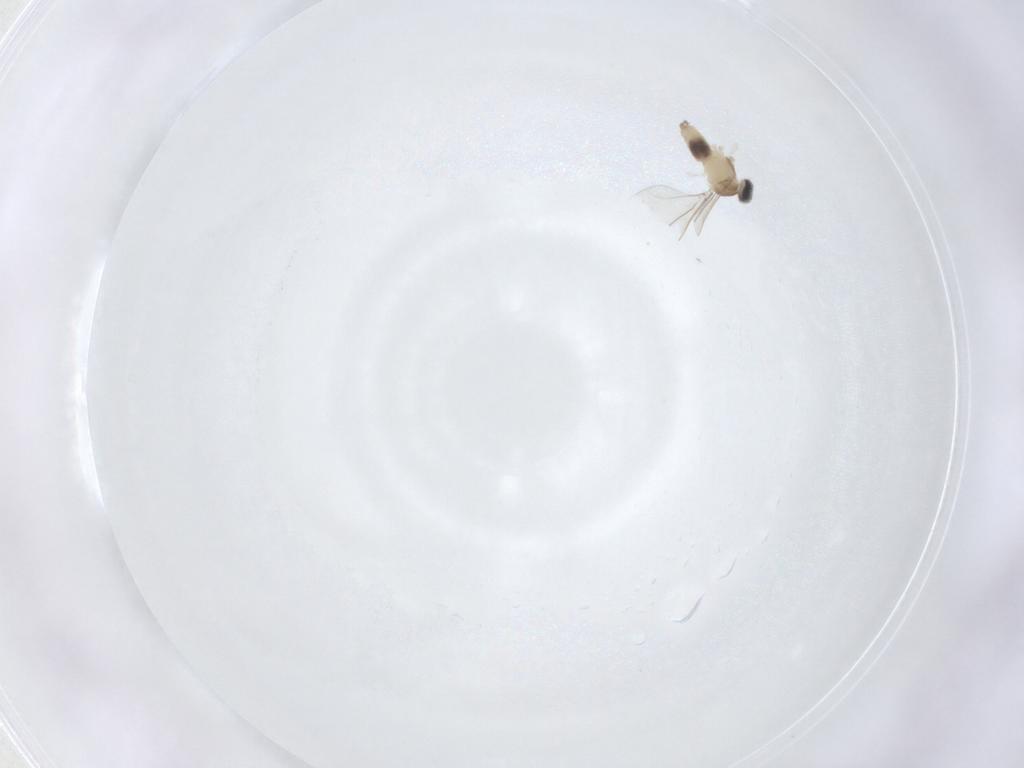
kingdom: Animalia
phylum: Arthropoda
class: Insecta
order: Diptera
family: Cecidomyiidae
